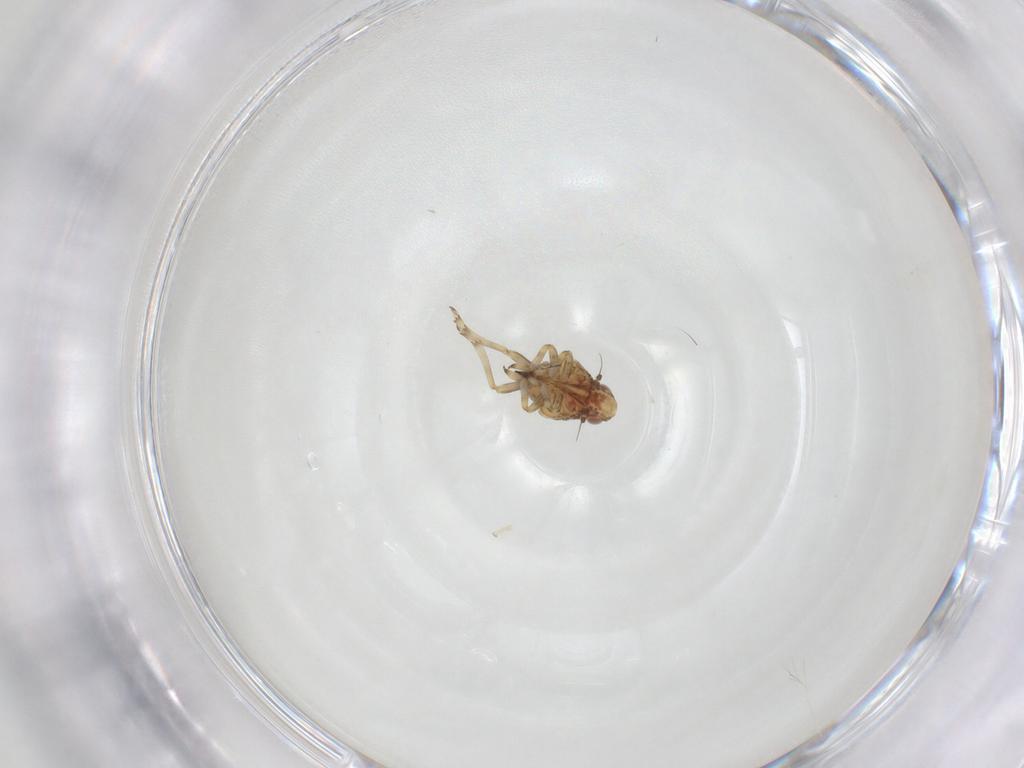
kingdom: Animalia
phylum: Arthropoda
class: Insecta
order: Hemiptera
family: Tropiduchidae
